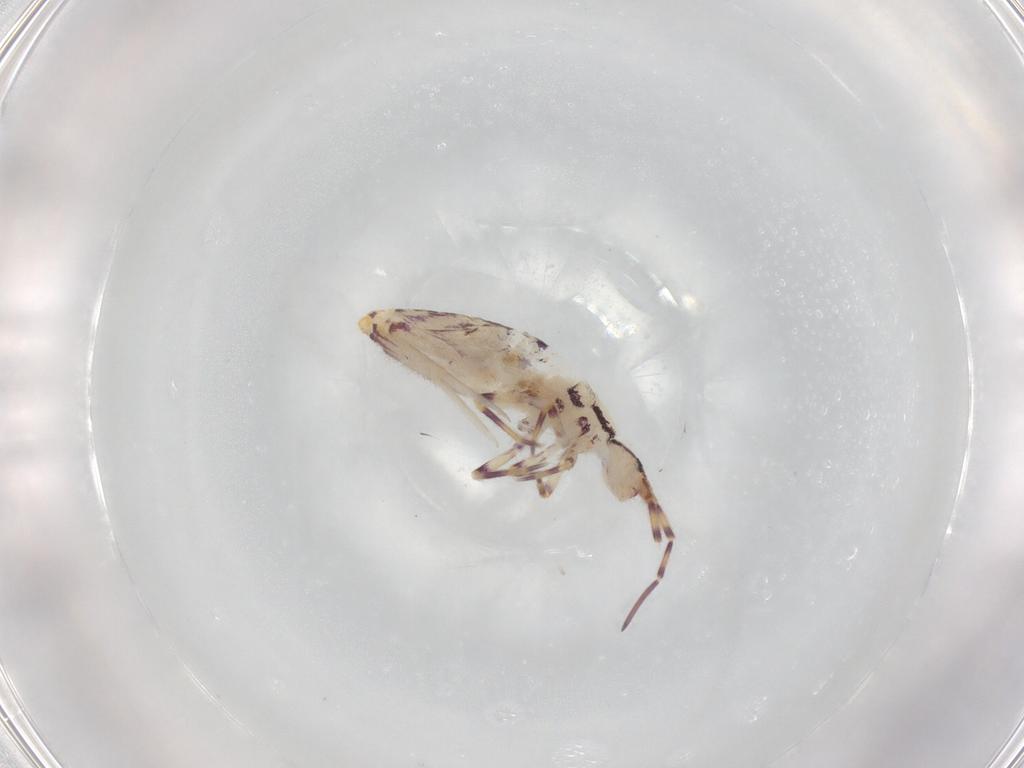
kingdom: Animalia
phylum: Arthropoda
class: Collembola
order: Entomobryomorpha
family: Entomobryidae
